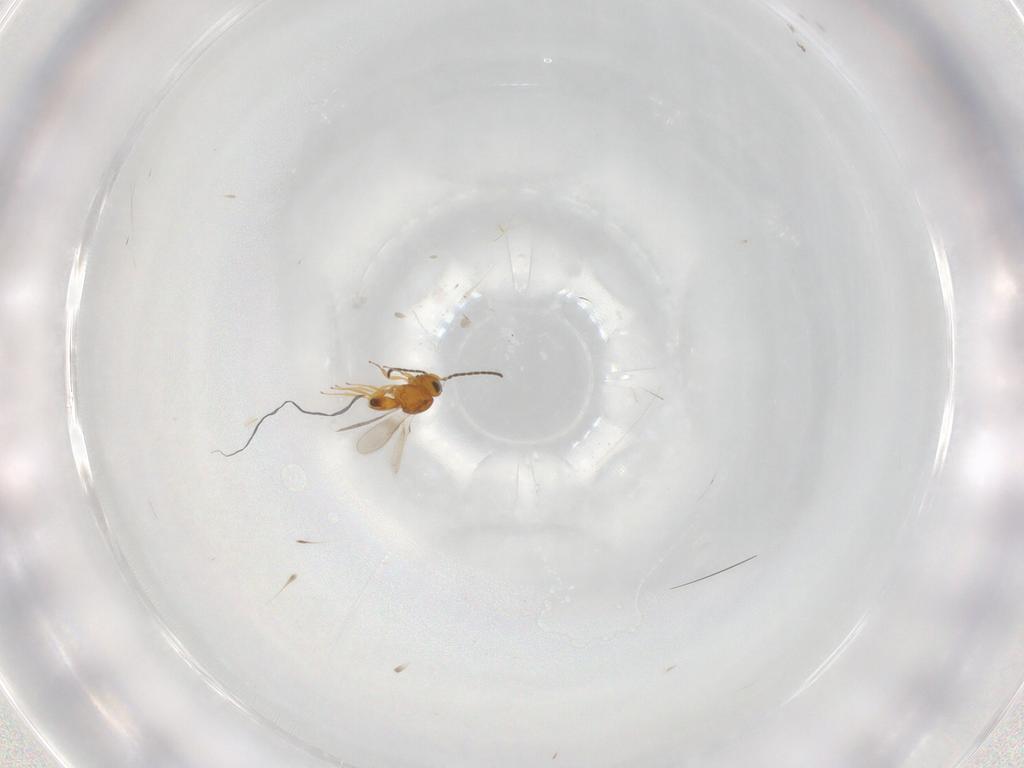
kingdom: Animalia
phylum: Arthropoda
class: Insecta
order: Hymenoptera
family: Scelionidae
